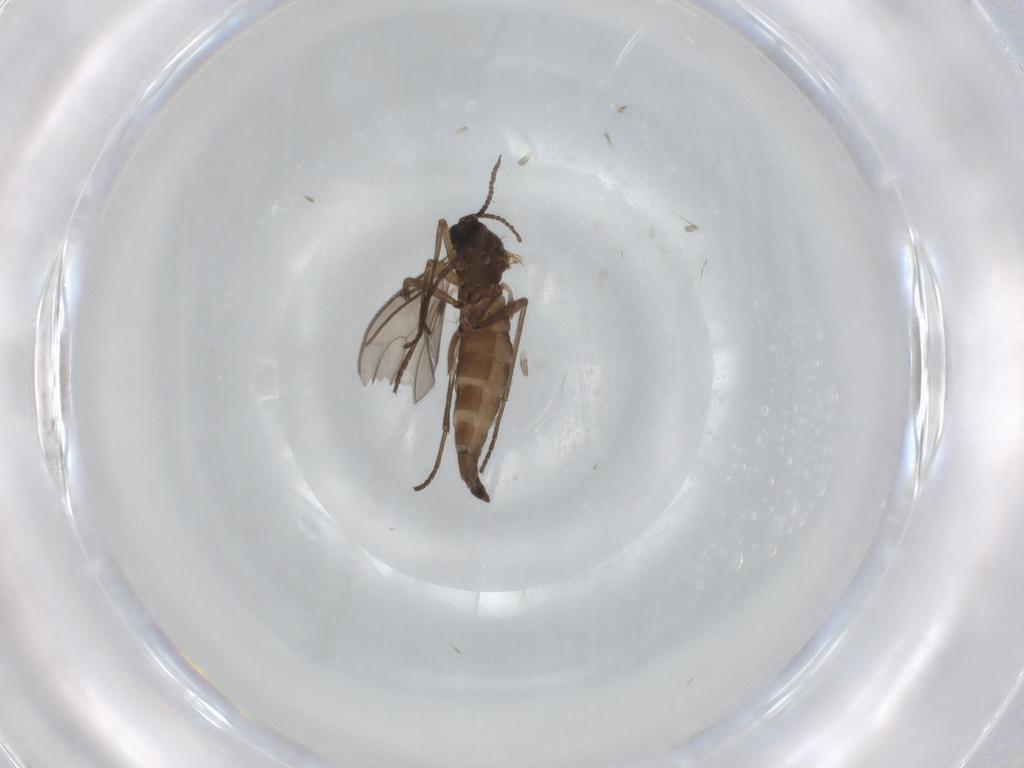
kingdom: Animalia
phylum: Arthropoda
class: Insecta
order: Diptera
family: Sciaridae
